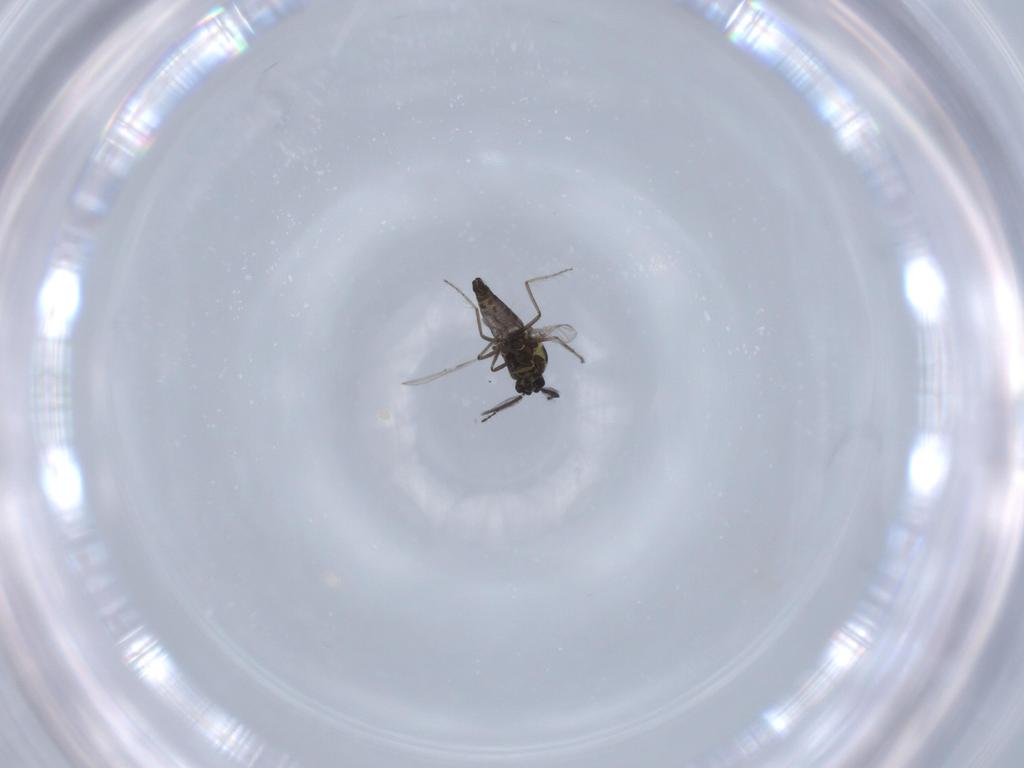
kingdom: Animalia
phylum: Arthropoda
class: Insecta
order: Diptera
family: Ceratopogonidae
